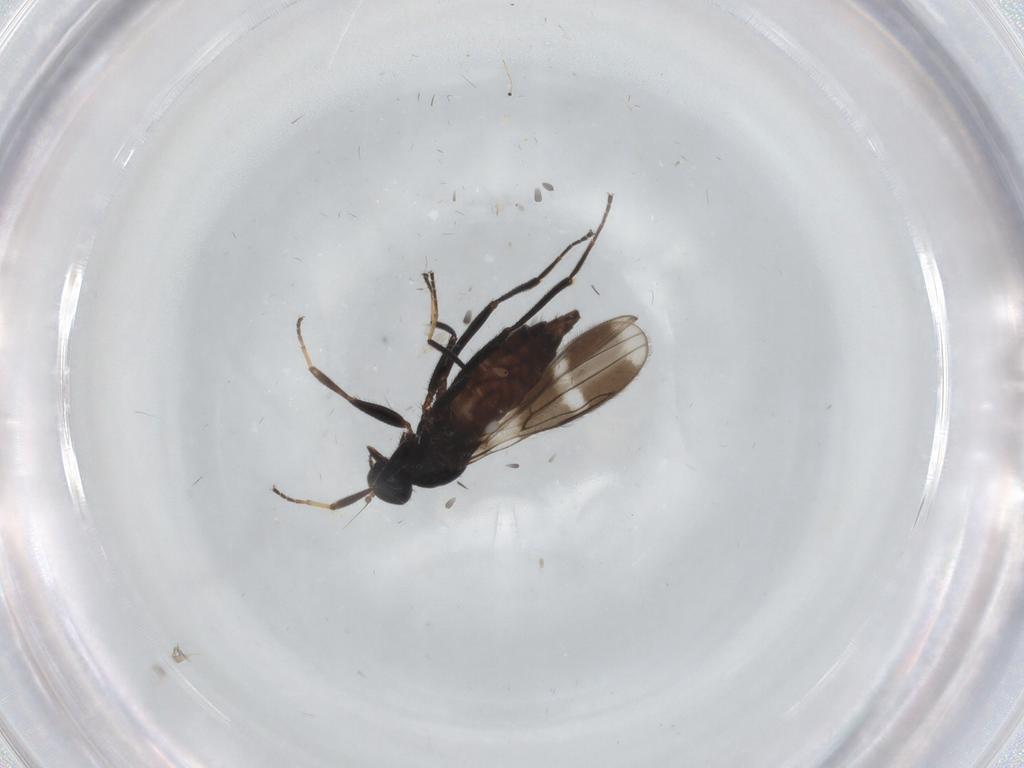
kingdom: Animalia
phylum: Arthropoda
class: Insecta
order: Diptera
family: Hybotidae
